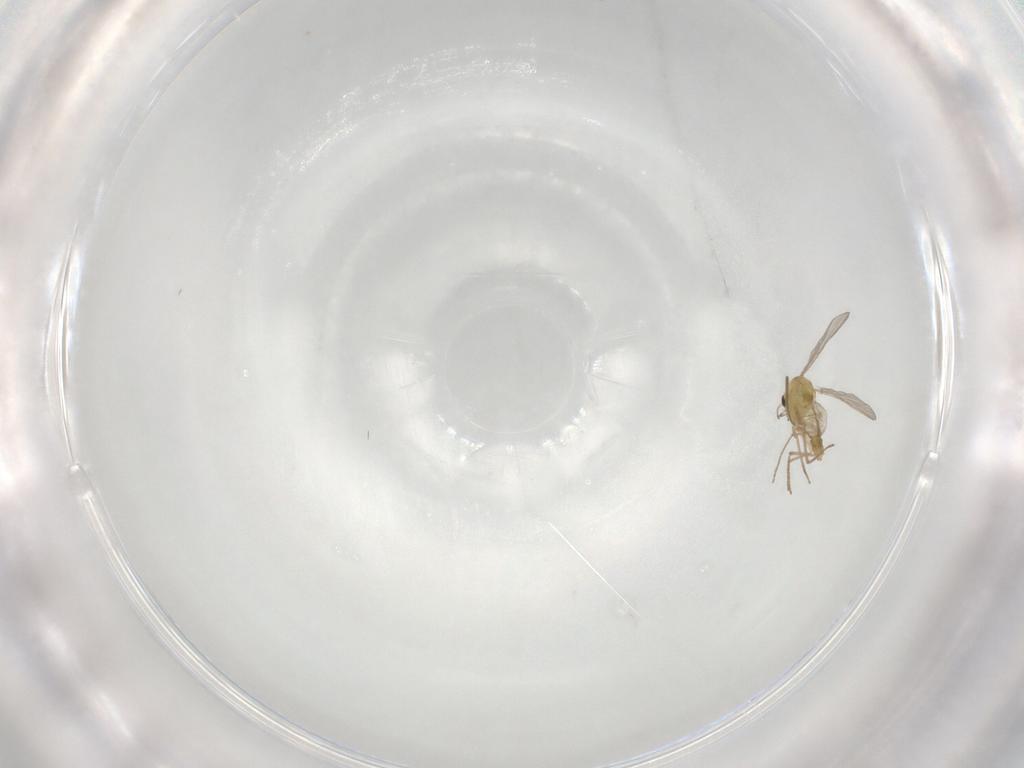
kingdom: Animalia
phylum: Arthropoda
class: Insecta
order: Diptera
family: Chironomidae
